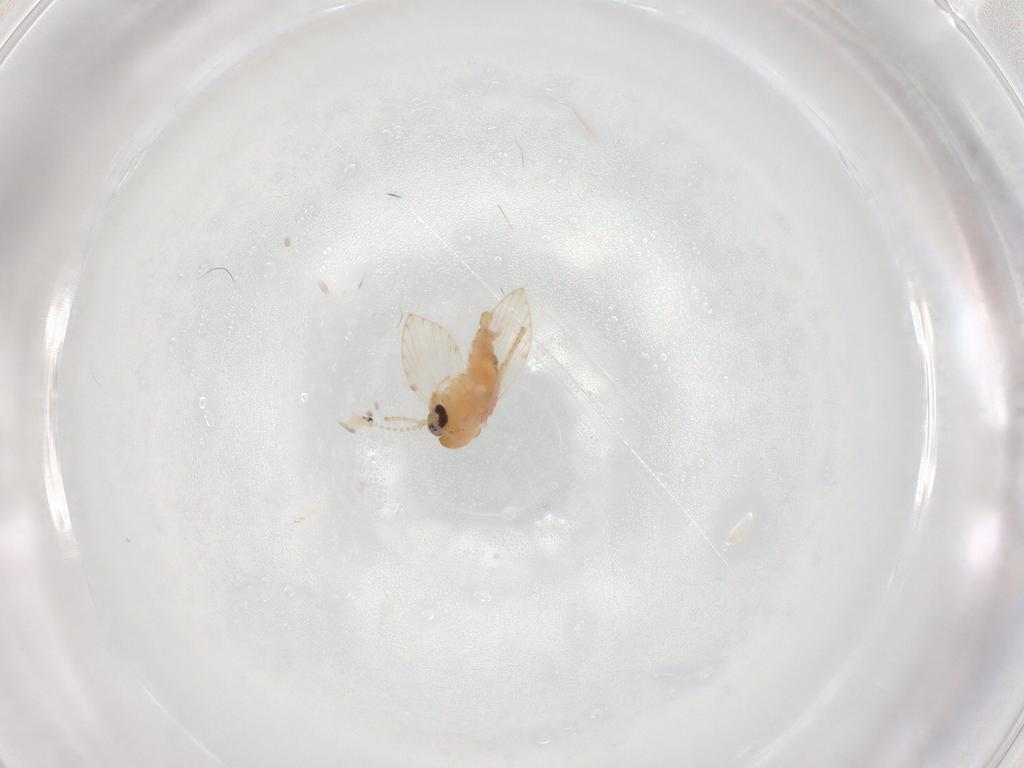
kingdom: Animalia
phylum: Arthropoda
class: Insecta
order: Diptera
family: Psychodidae
